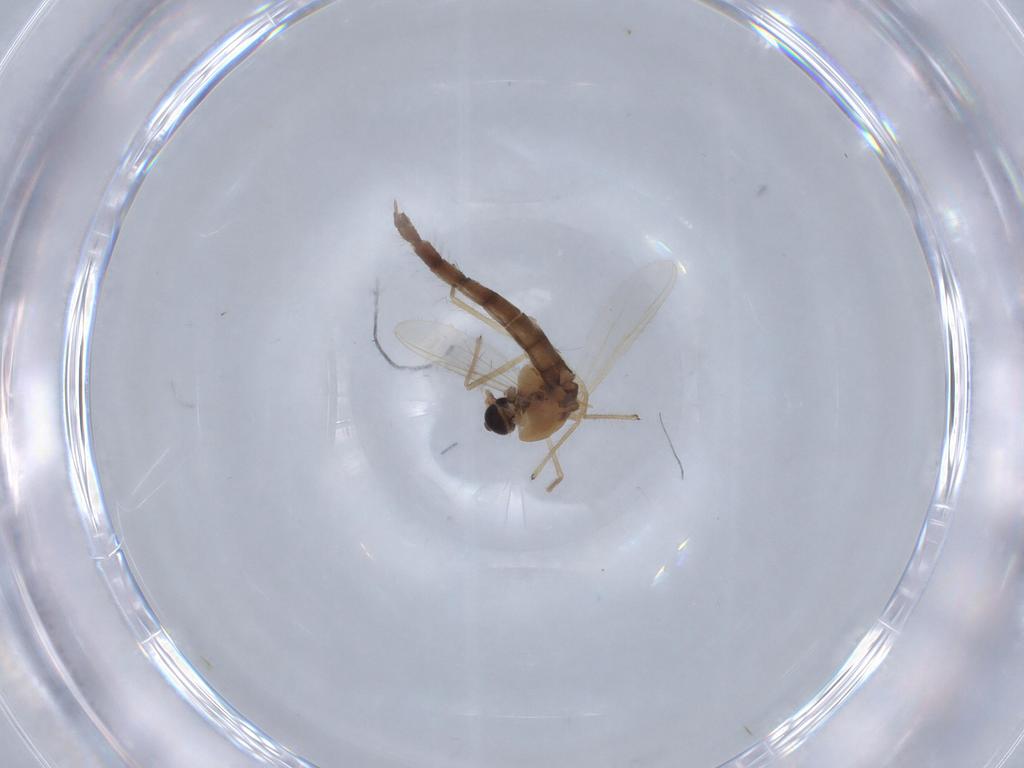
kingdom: Animalia
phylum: Arthropoda
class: Insecta
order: Diptera
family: Chironomidae
